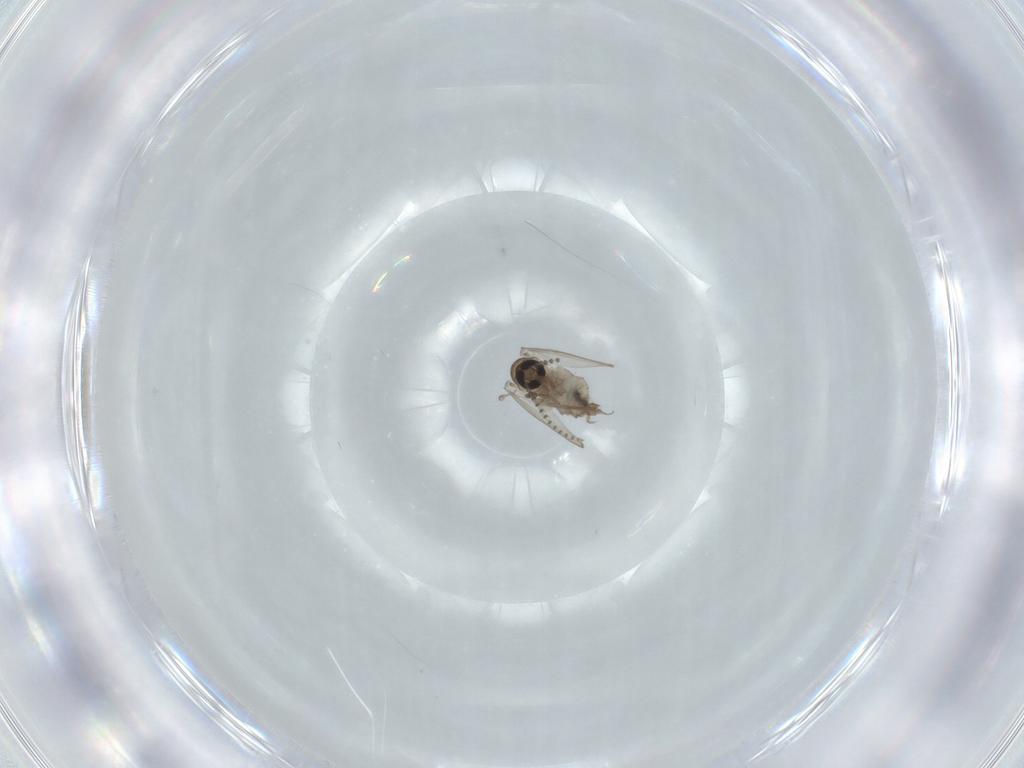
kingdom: Animalia
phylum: Arthropoda
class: Insecta
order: Diptera
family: Psychodidae
